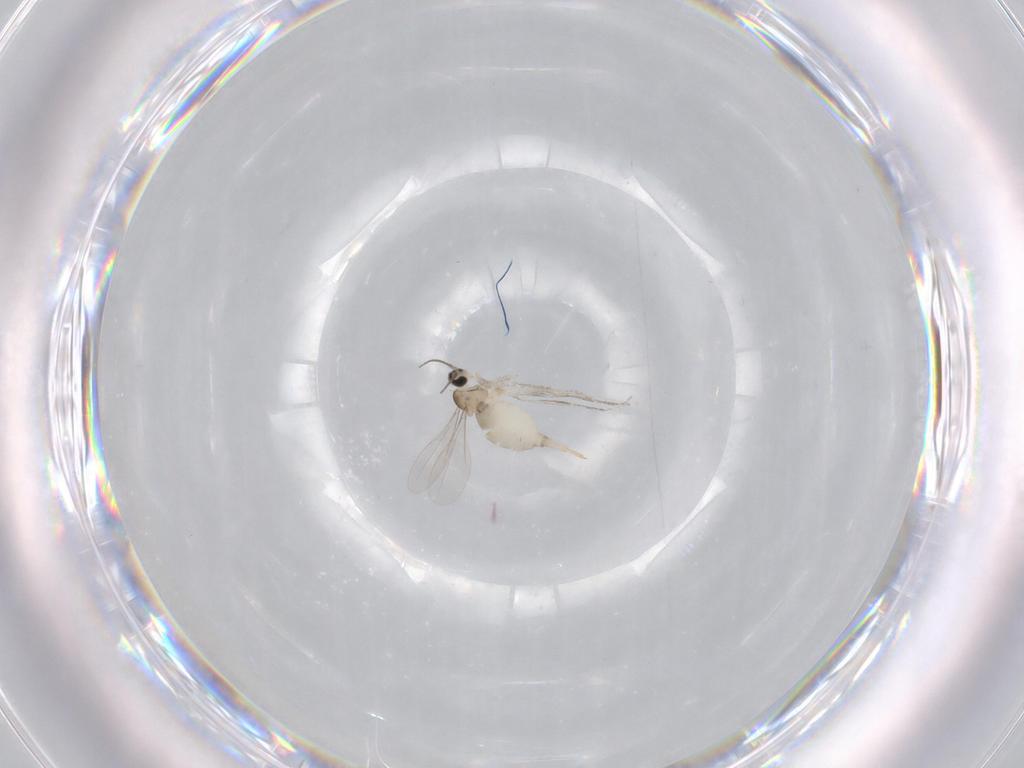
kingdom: Animalia
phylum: Arthropoda
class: Insecta
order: Diptera
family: Cecidomyiidae
